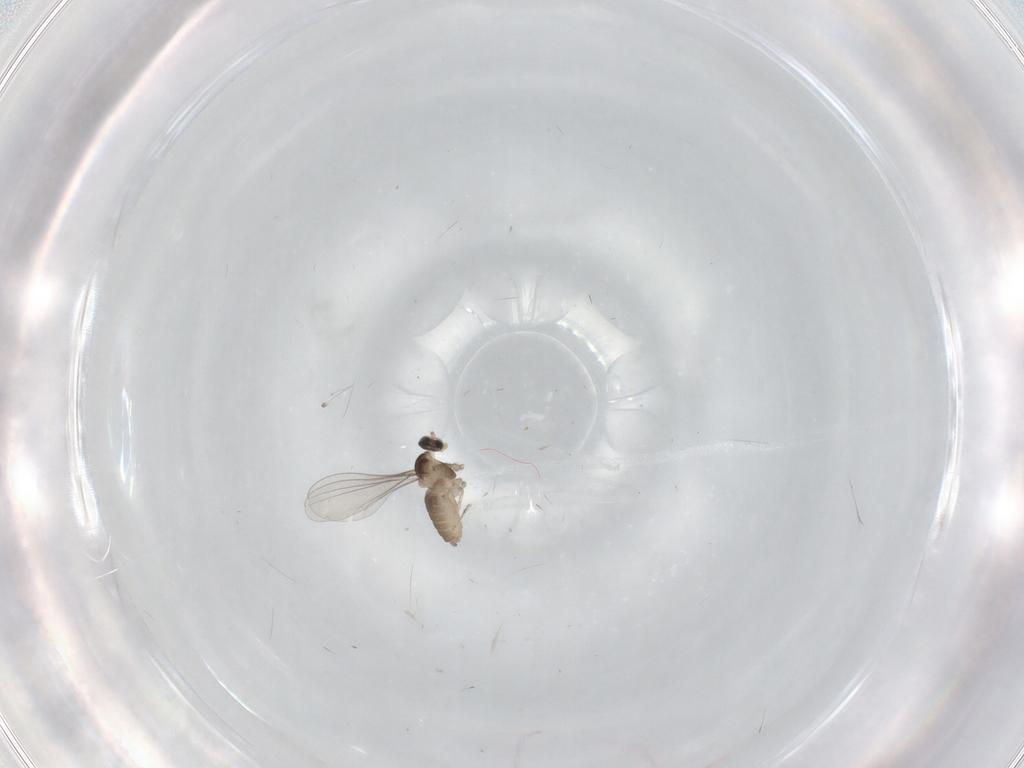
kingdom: Animalia
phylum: Arthropoda
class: Insecta
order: Diptera
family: Cecidomyiidae
